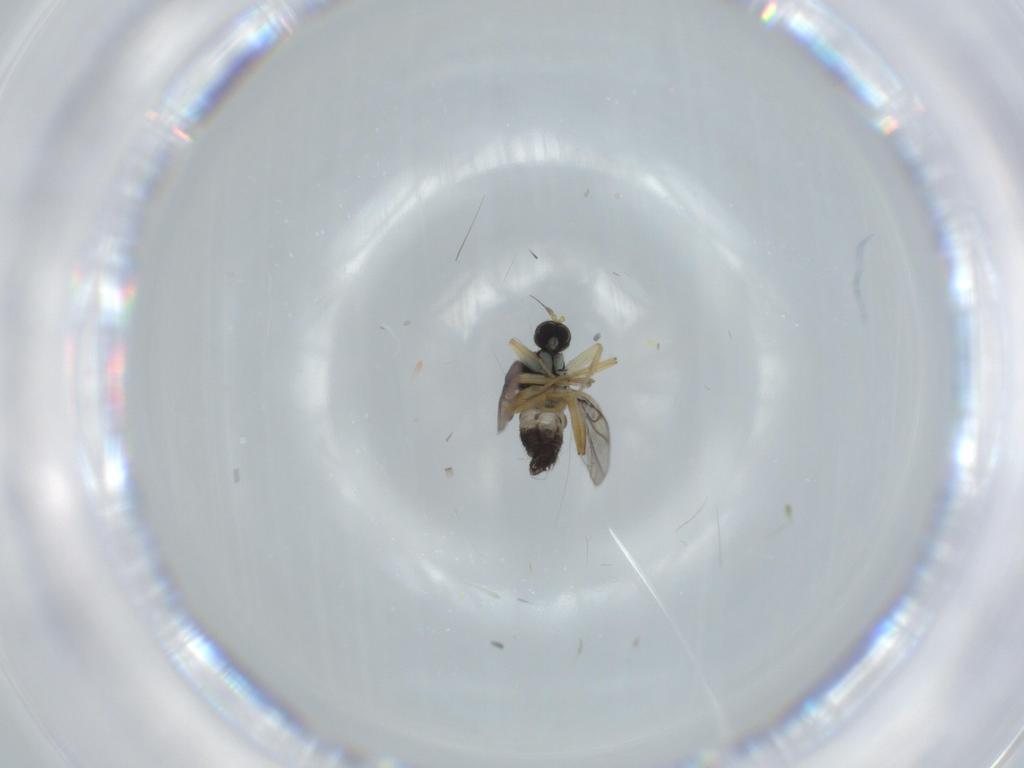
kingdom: Animalia
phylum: Arthropoda
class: Insecta
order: Diptera
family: Hybotidae
